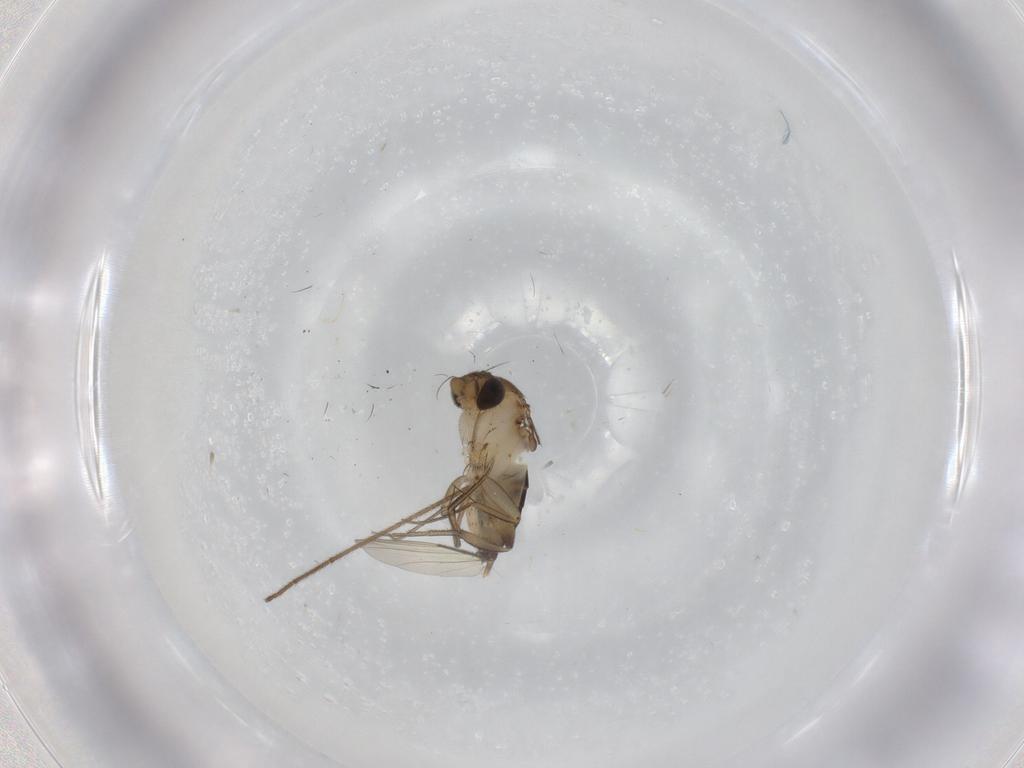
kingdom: Animalia
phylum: Arthropoda
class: Insecta
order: Diptera
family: Phoridae
